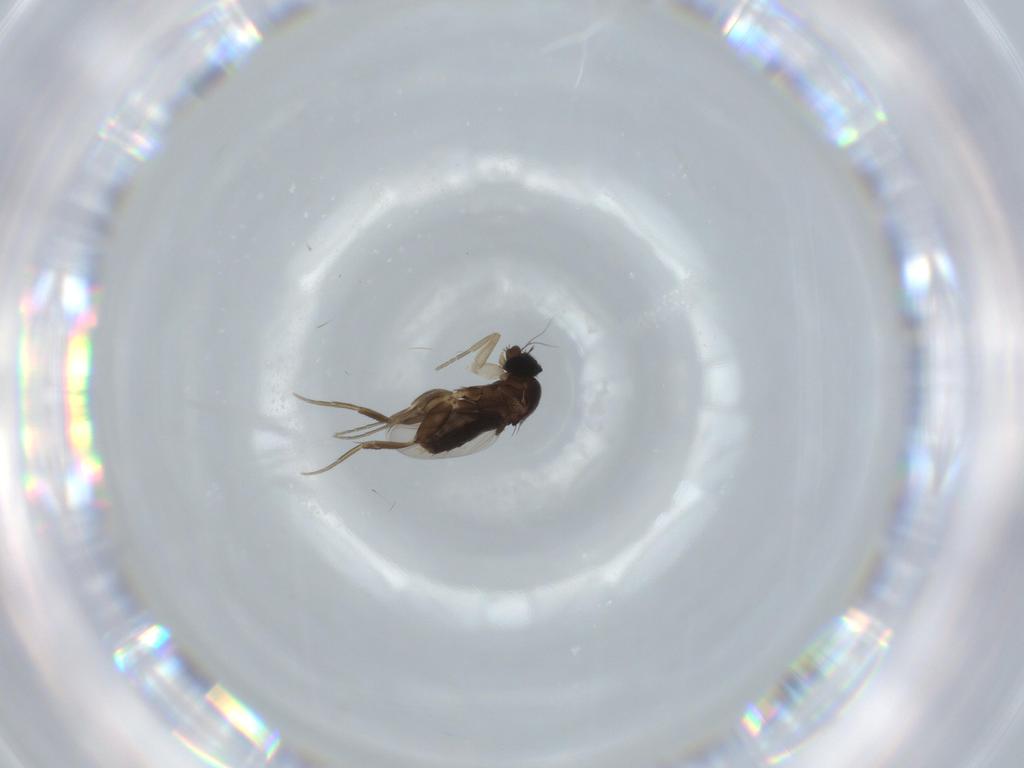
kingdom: Animalia
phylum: Arthropoda
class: Insecta
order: Diptera
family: Phoridae
